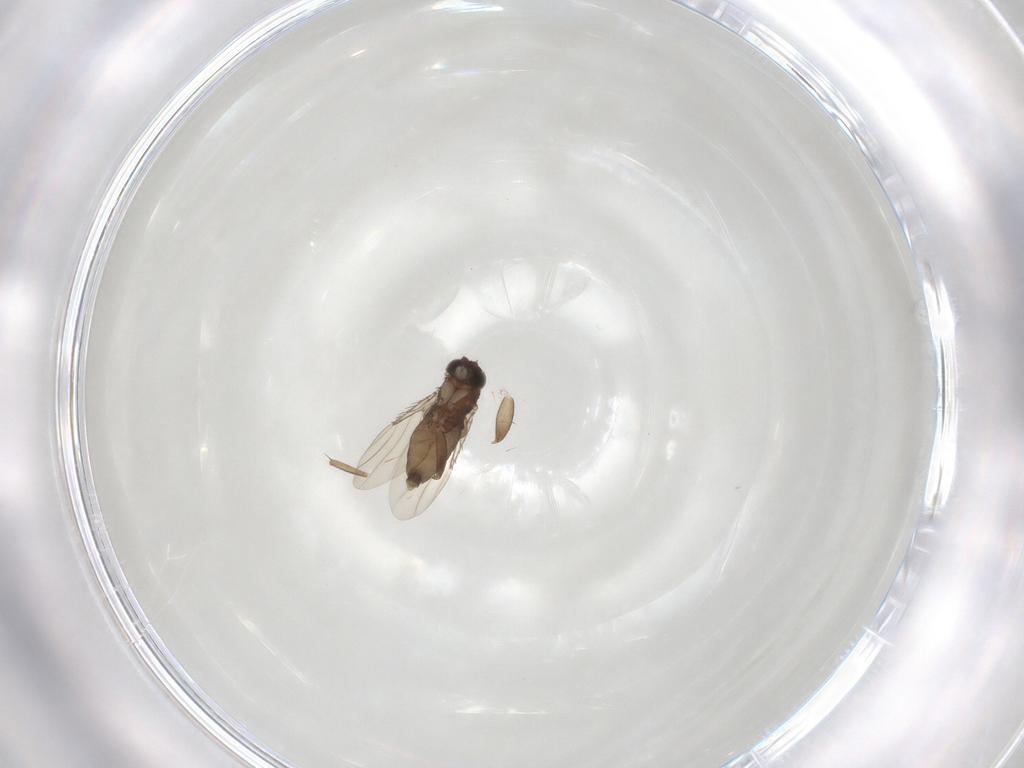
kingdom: Animalia
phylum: Arthropoda
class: Insecta
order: Diptera
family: Limoniidae
